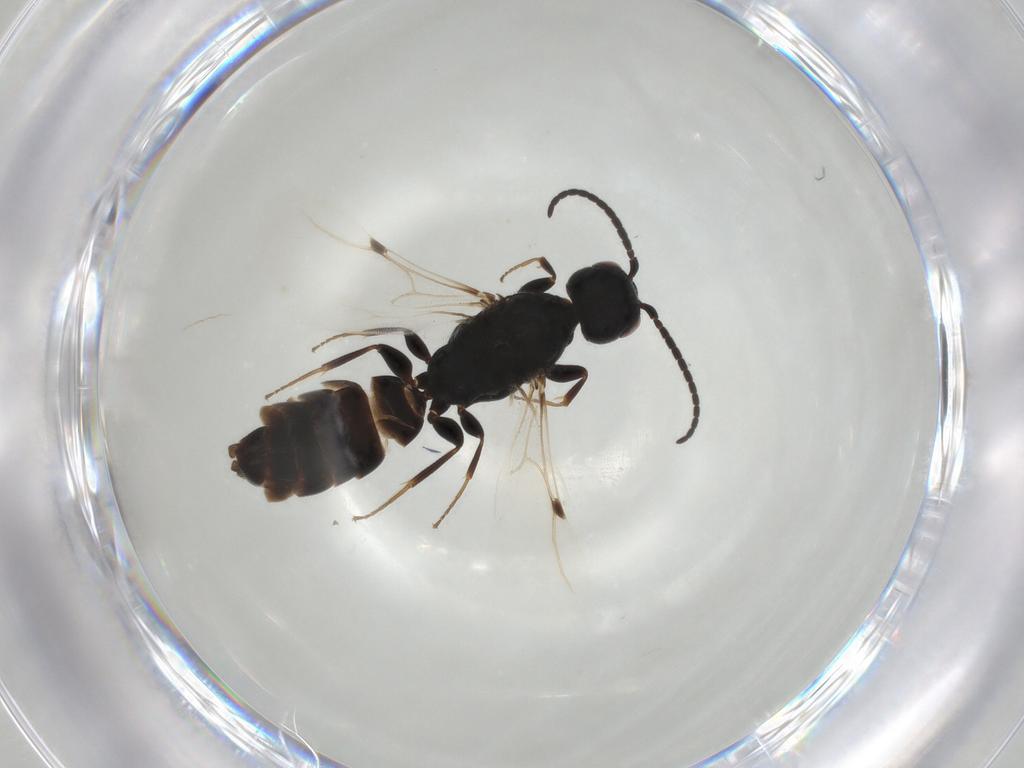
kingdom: Animalia
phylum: Arthropoda
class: Insecta
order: Hymenoptera
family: Bethylidae
